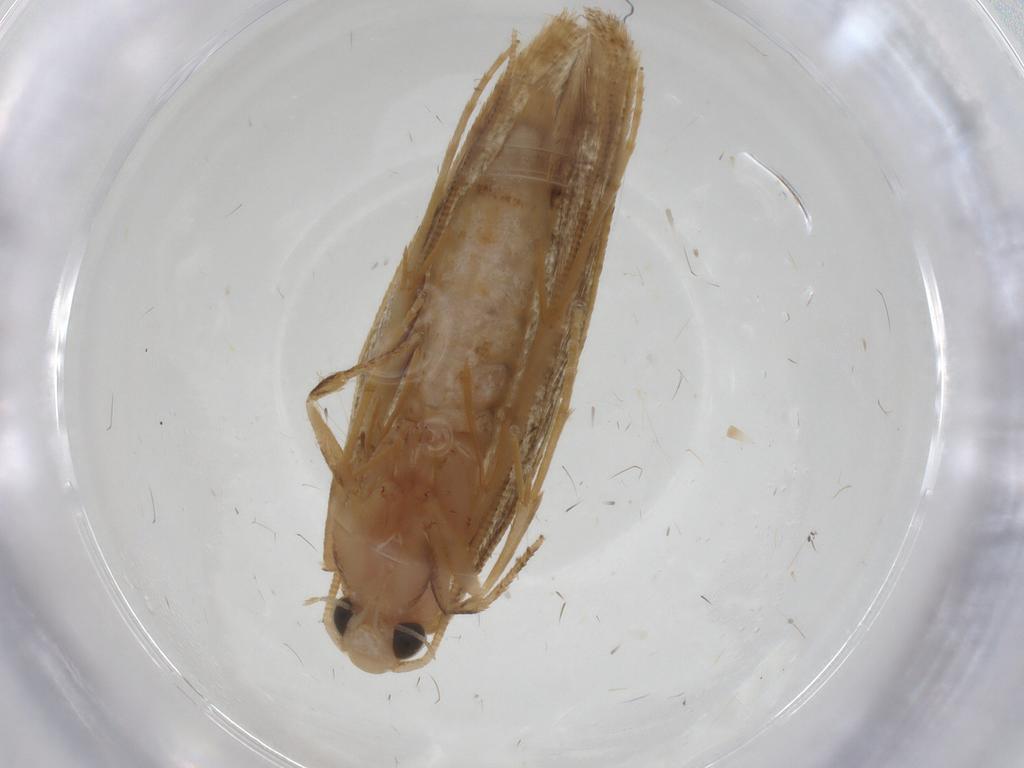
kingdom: Animalia
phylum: Arthropoda
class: Insecta
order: Lepidoptera
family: Tineidae
